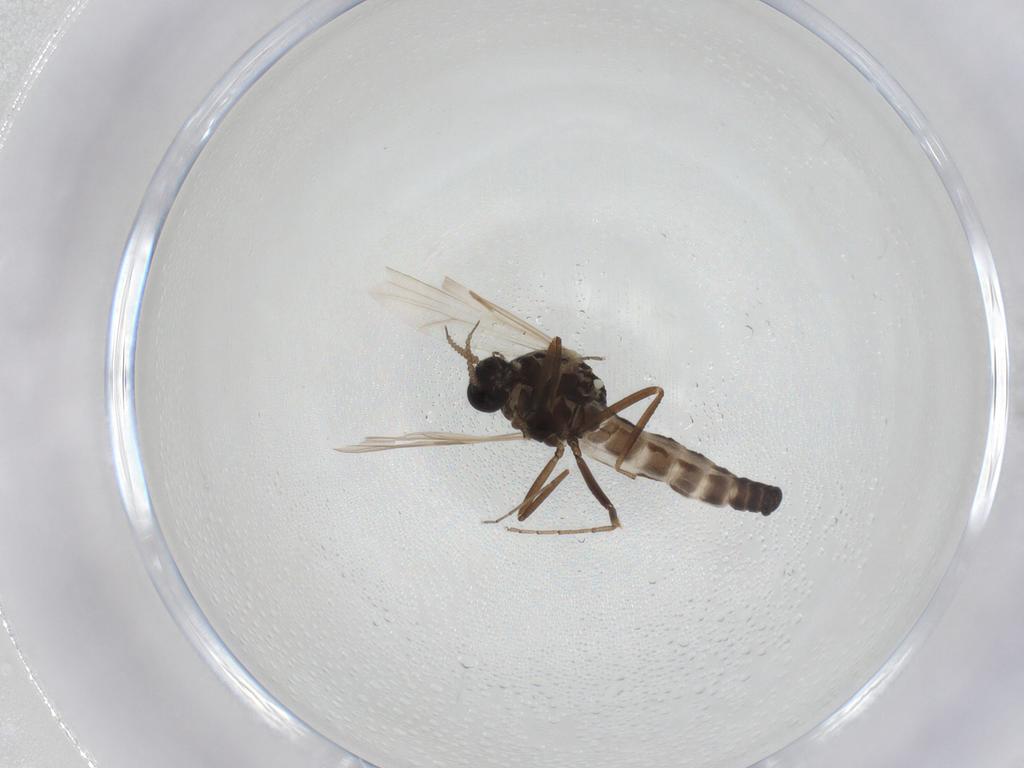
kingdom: Animalia
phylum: Arthropoda
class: Insecta
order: Diptera
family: Ceratopogonidae
